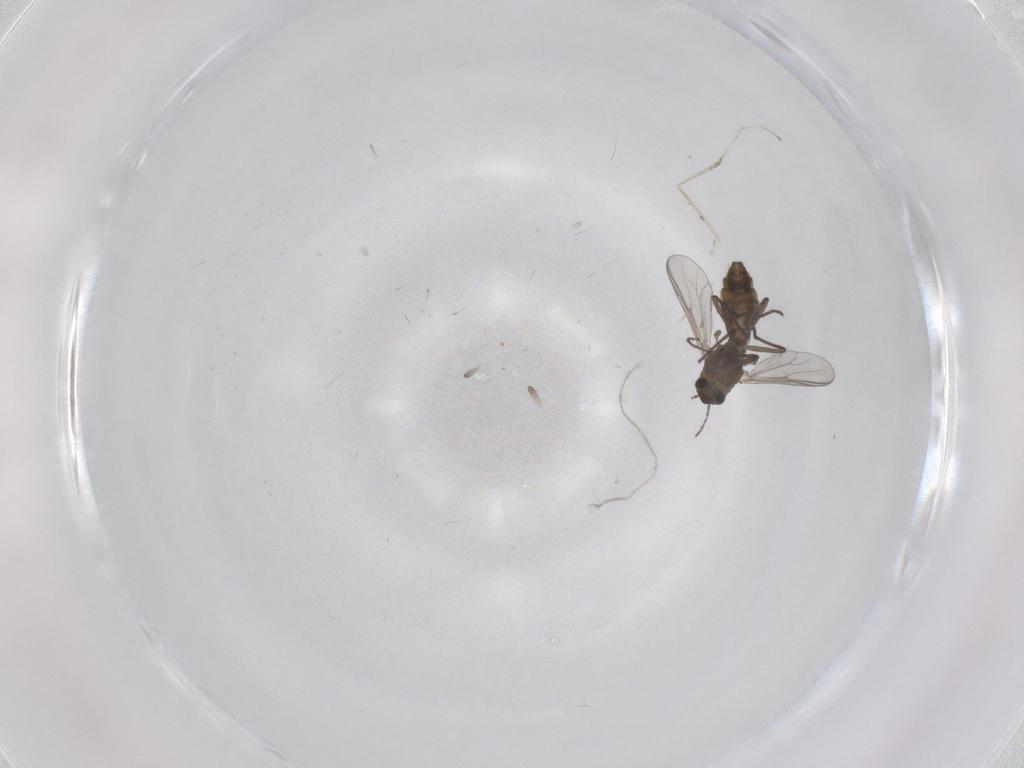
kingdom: Animalia
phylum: Arthropoda
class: Insecta
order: Diptera
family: Chironomidae
